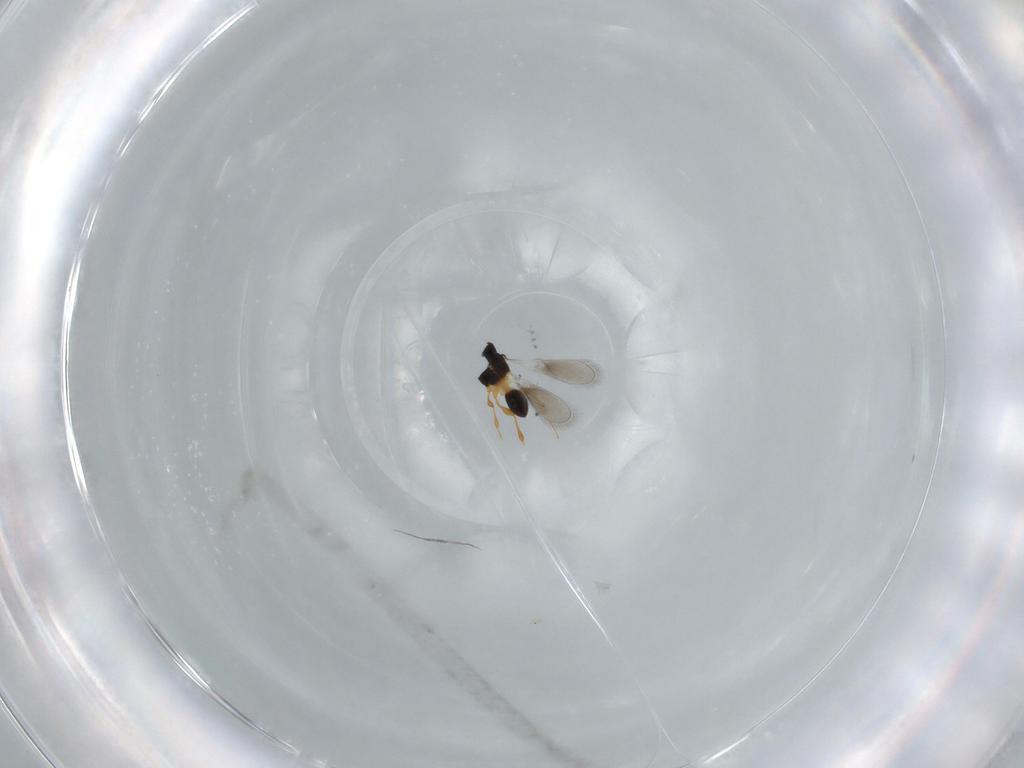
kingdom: Animalia
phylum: Arthropoda
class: Insecta
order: Hymenoptera
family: Platygastridae
